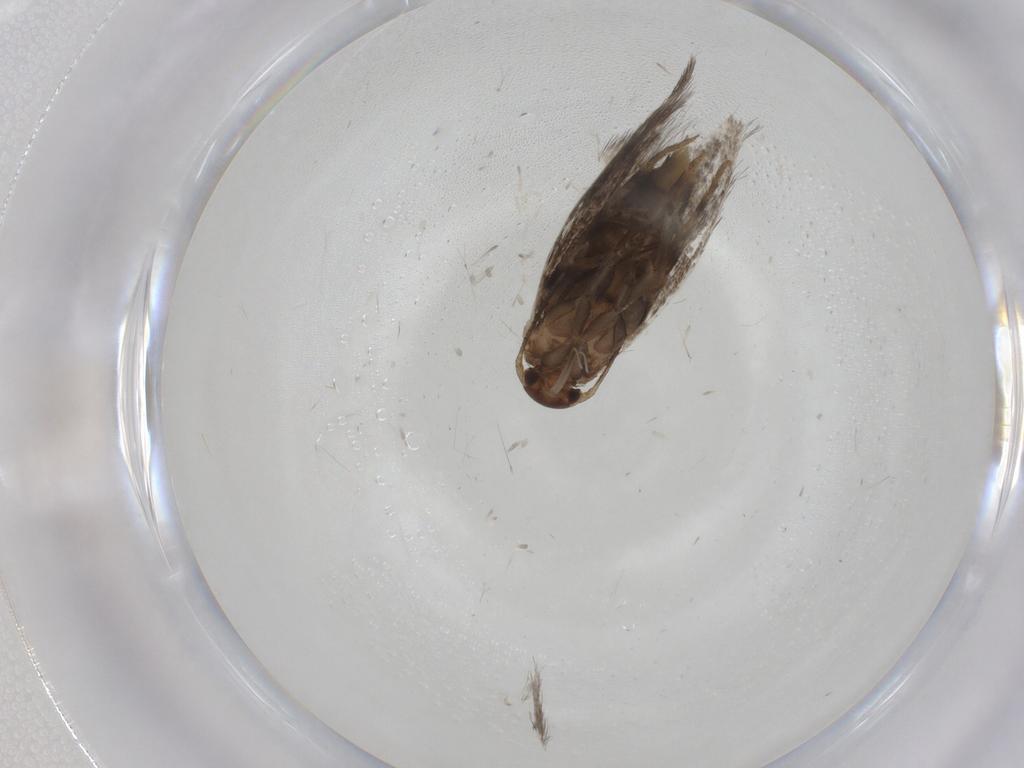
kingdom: Animalia
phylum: Arthropoda
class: Insecta
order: Lepidoptera
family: Elachistidae
